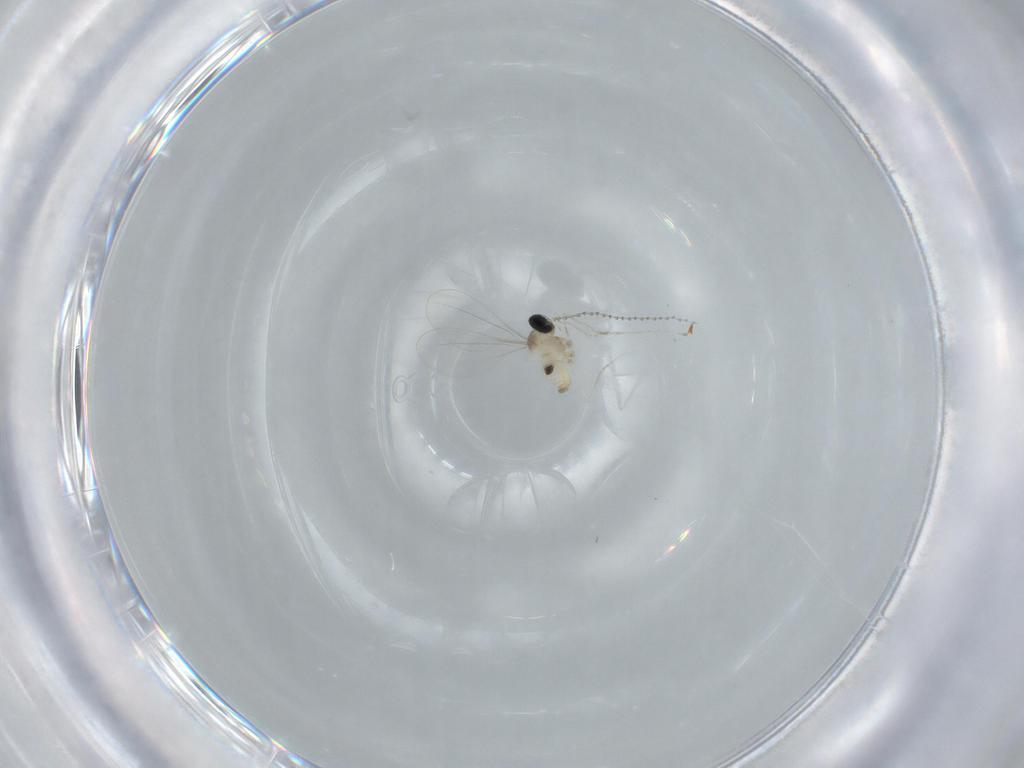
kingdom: Animalia
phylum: Arthropoda
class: Insecta
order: Diptera
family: Cecidomyiidae
